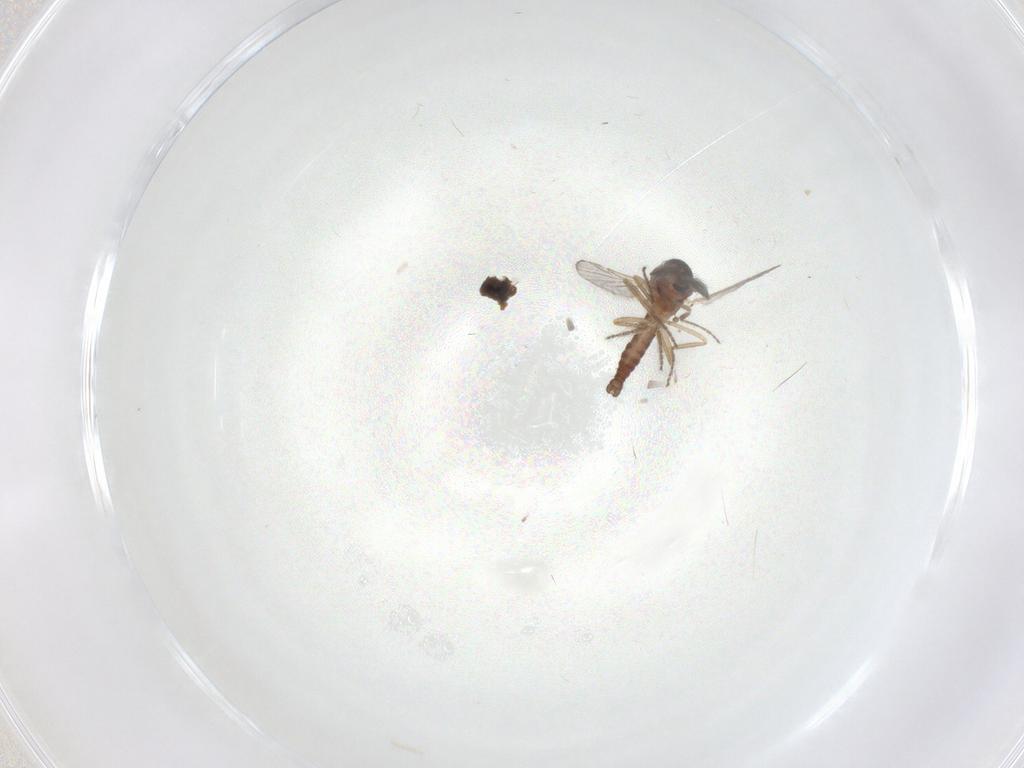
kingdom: Animalia
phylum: Arthropoda
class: Insecta
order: Diptera
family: Ceratopogonidae
